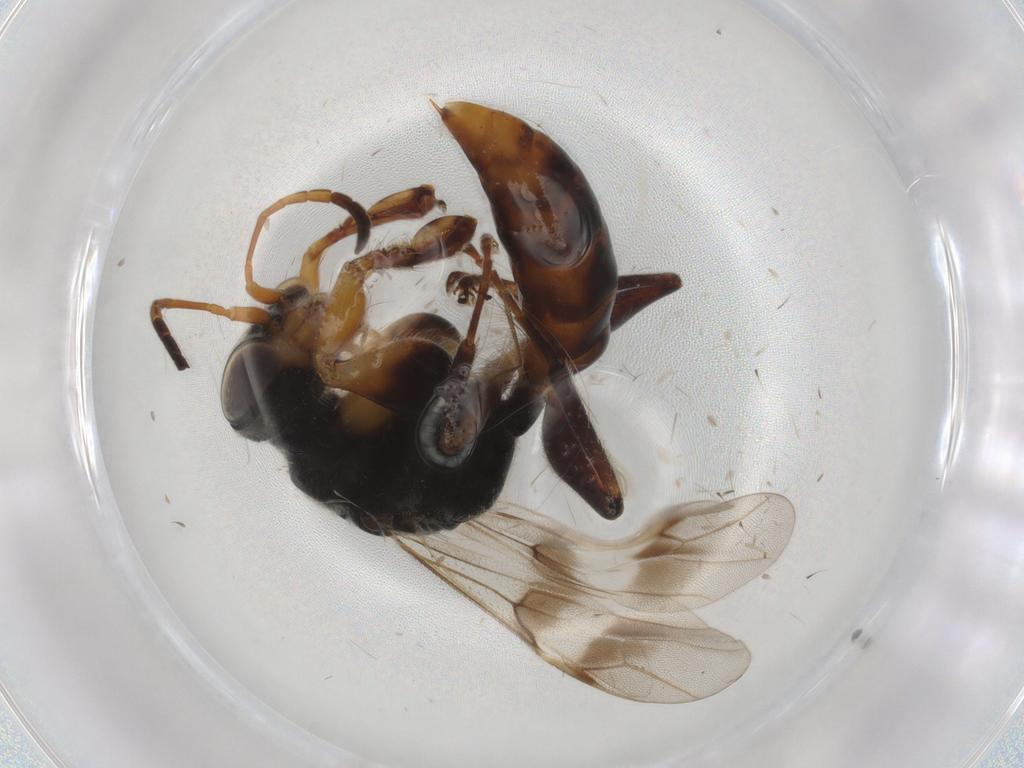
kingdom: Animalia
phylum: Arthropoda
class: Insecta
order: Hymenoptera
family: Dryinidae
